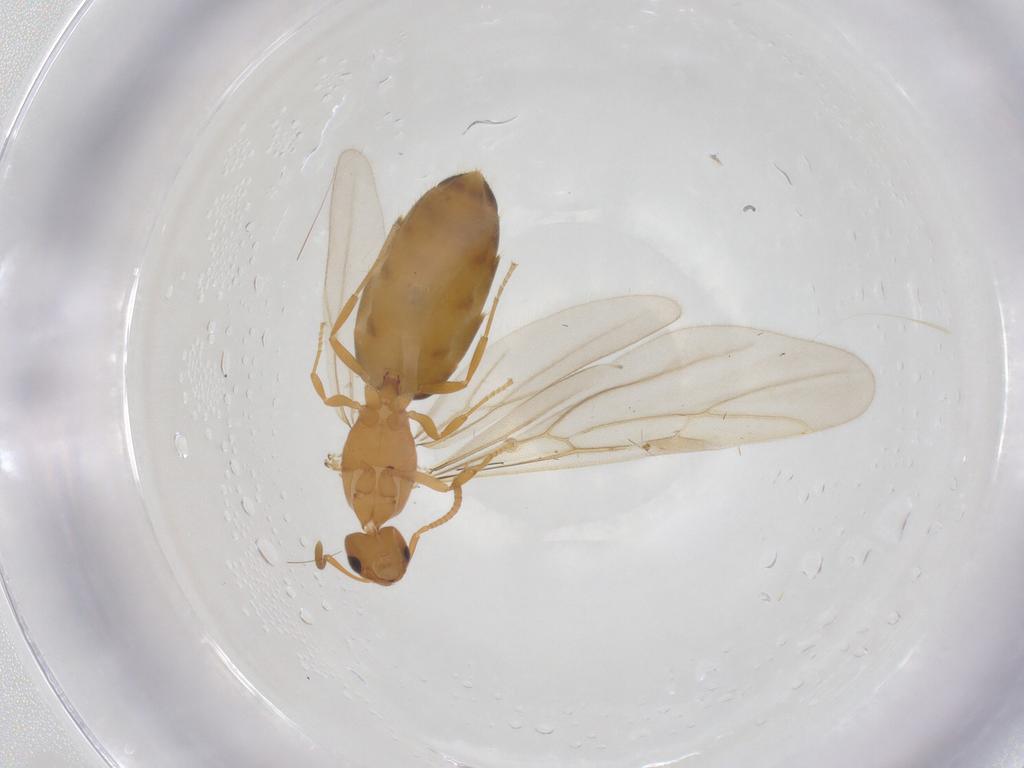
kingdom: Animalia
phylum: Arthropoda
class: Insecta
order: Hymenoptera
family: Formicidae
